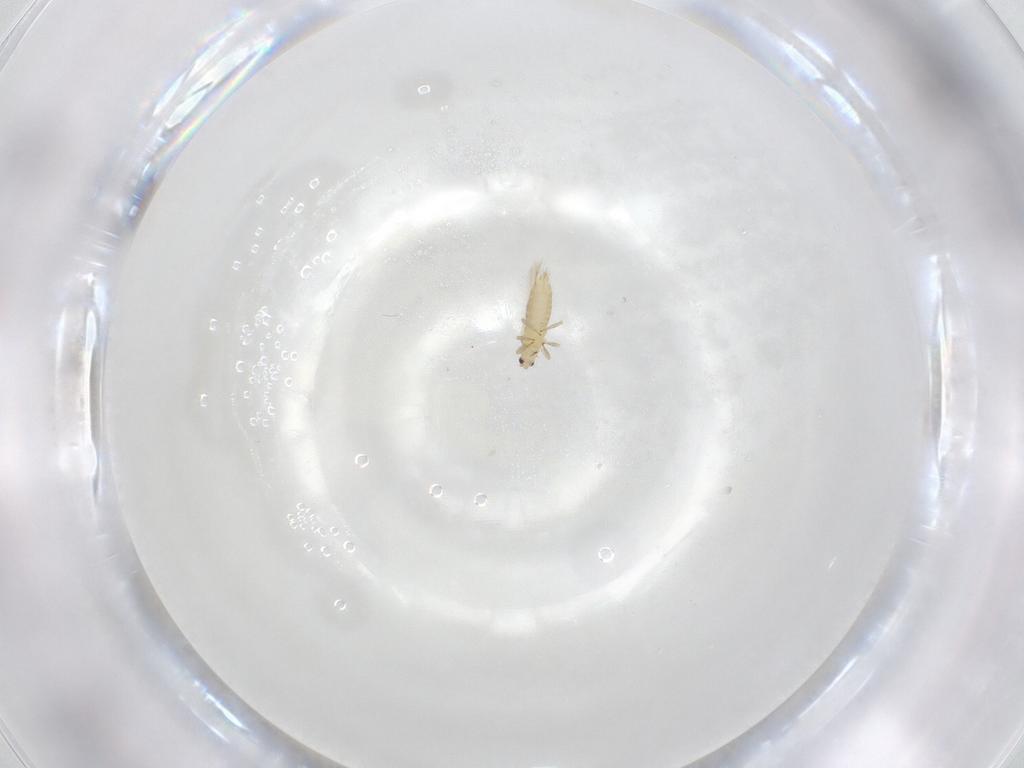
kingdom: Animalia
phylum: Arthropoda
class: Insecta
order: Thysanoptera
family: Thripidae
